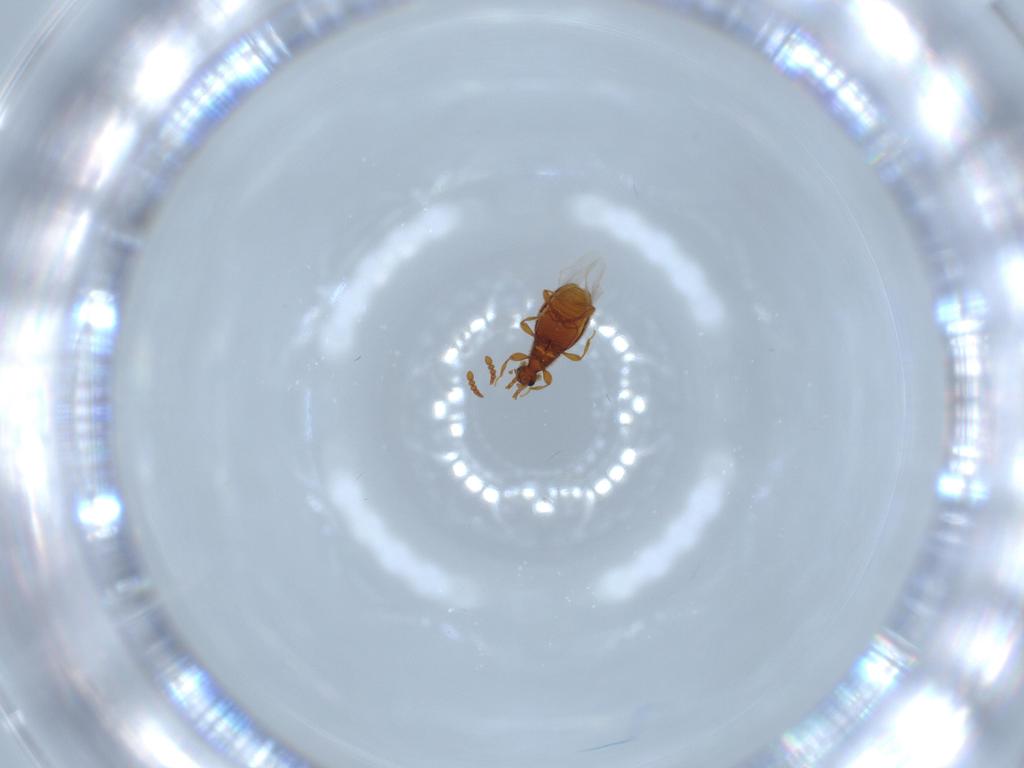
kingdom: Animalia
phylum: Arthropoda
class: Insecta
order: Coleoptera
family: Staphylinidae
